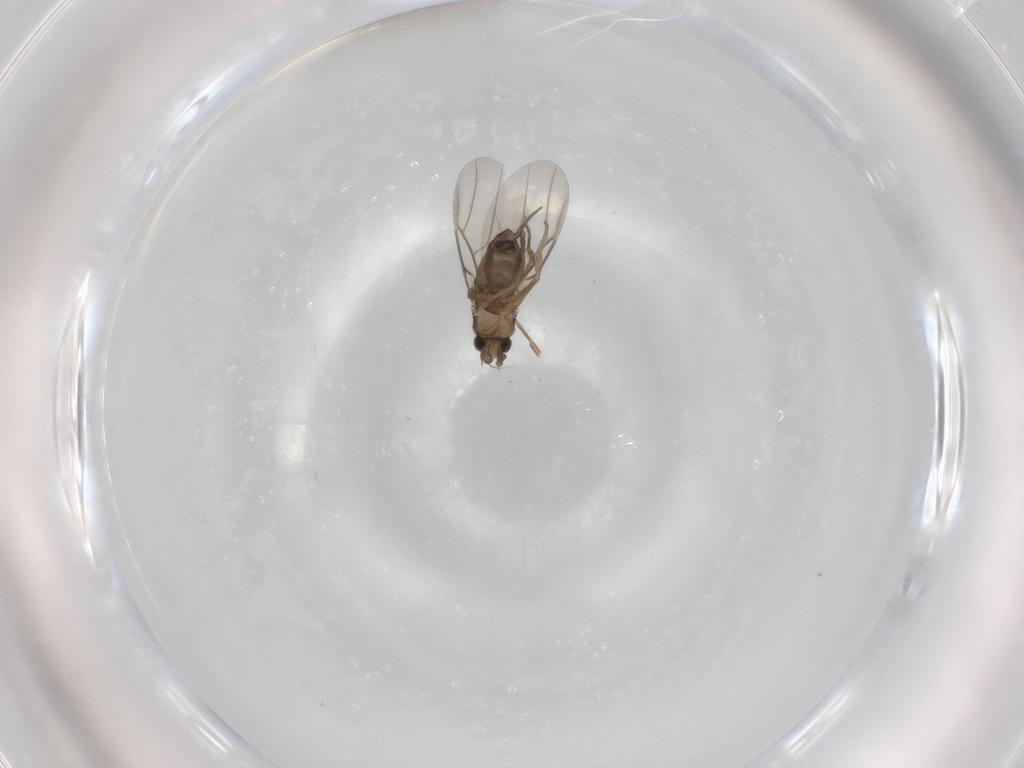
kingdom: Animalia
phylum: Arthropoda
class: Insecta
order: Diptera
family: Phoridae
